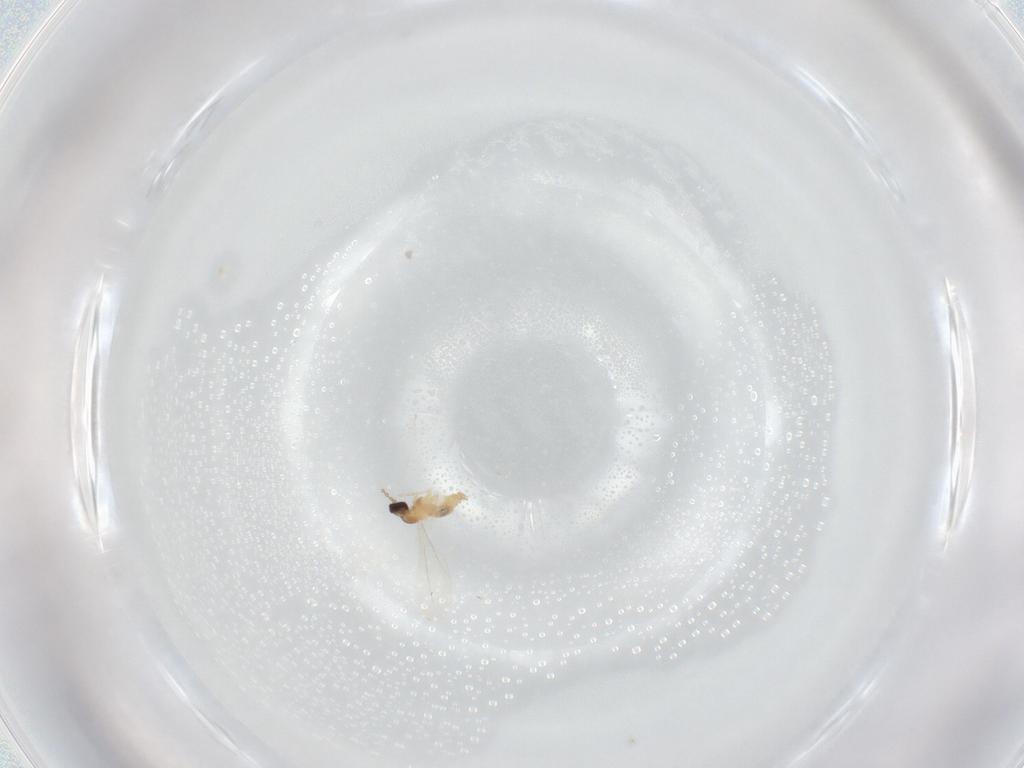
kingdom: Animalia
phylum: Arthropoda
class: Insecta
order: Diptera
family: Cecidomyiidae
